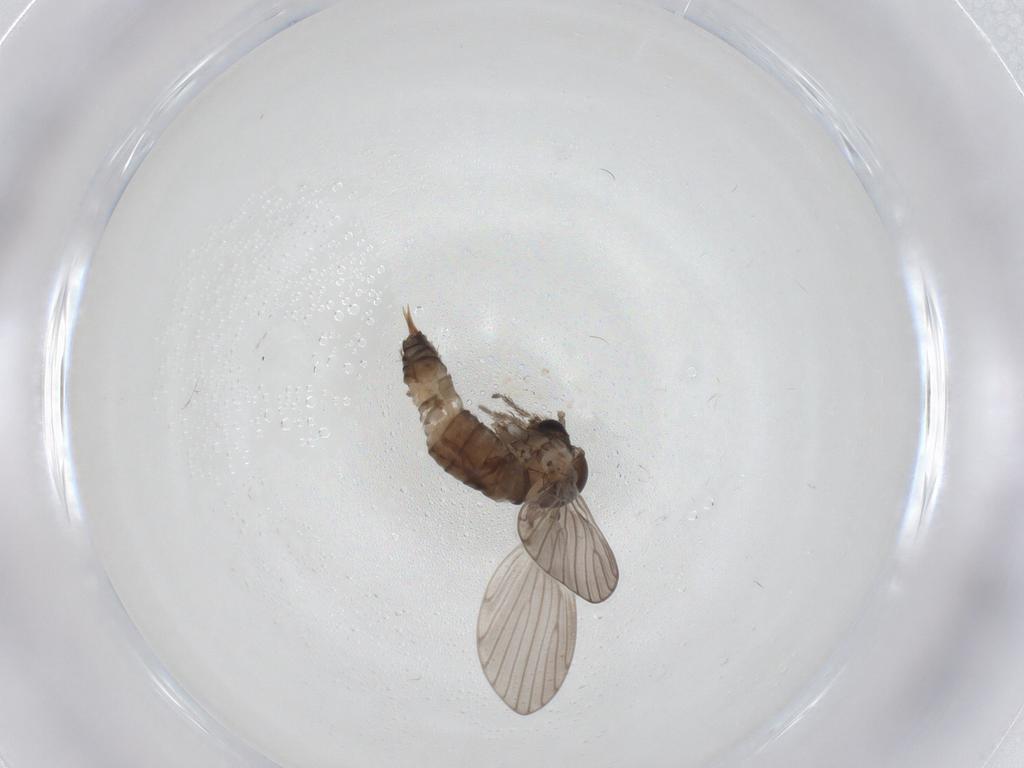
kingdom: Animalia
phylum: Arthropoda
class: Insecta
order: Diptera
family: Psychodidae
